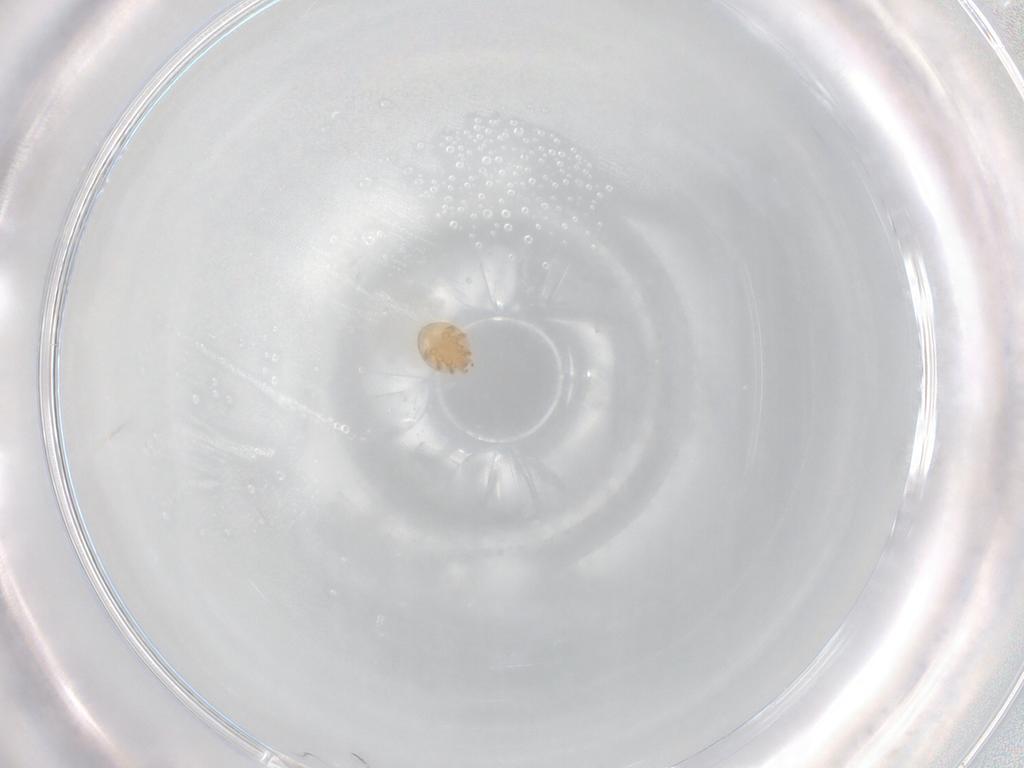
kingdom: Animalia
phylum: Arthropoda
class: Arachnida
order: Mesostigmata
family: Trematuridae
